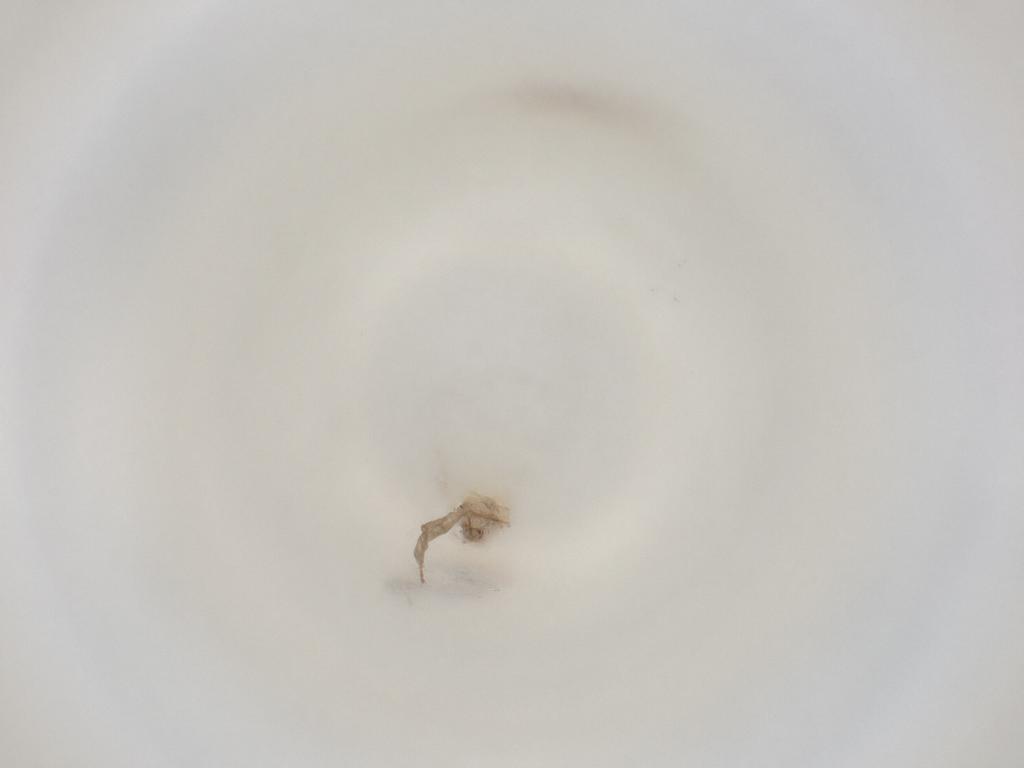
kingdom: Animalia
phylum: Arthropoda
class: Insecta
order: Diptera
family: Cecidomyiidae
